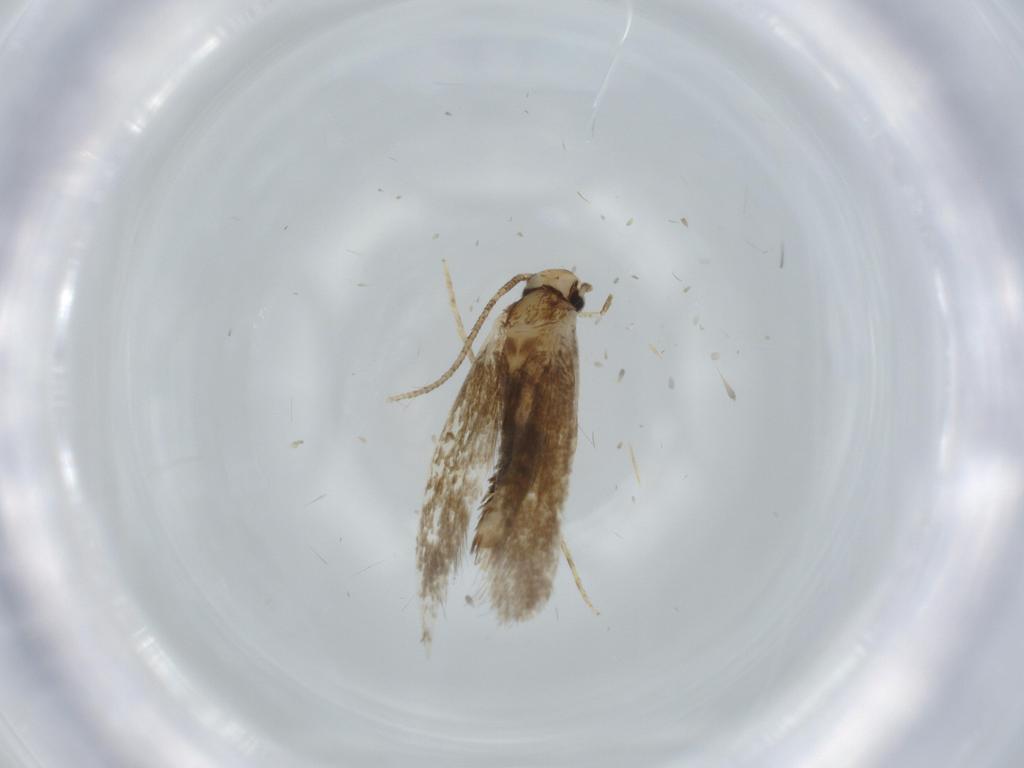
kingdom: Animalia
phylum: Arthropoda
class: Insecta
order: Lepidoptera
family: Tineidae
